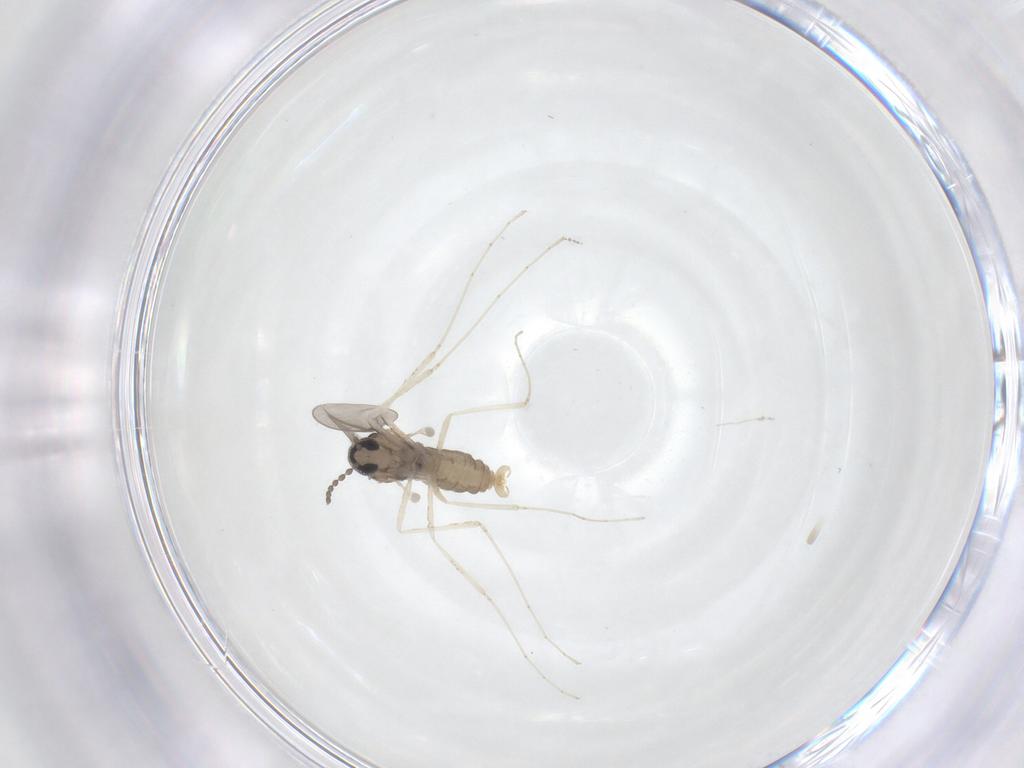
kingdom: Animalia
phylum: Arthropoda
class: Insecta
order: Diptera
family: Cecidomyiidae
